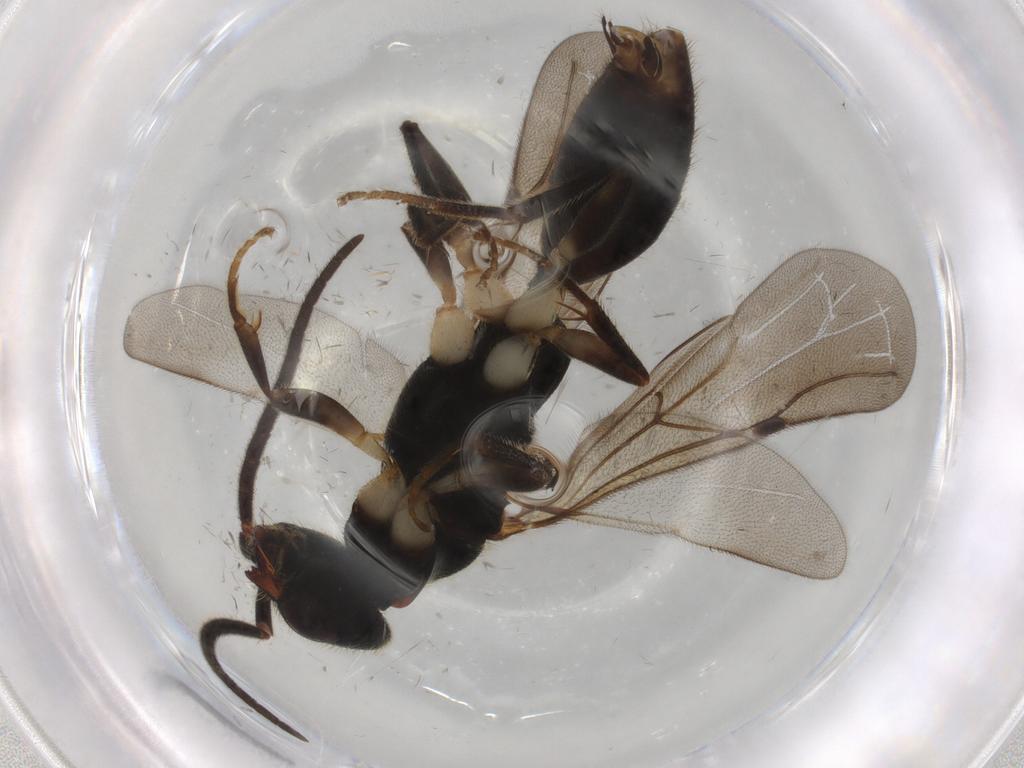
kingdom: Animalia
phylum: Arthropoda
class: Insecta
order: Hymenoptera
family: Bethylidae
